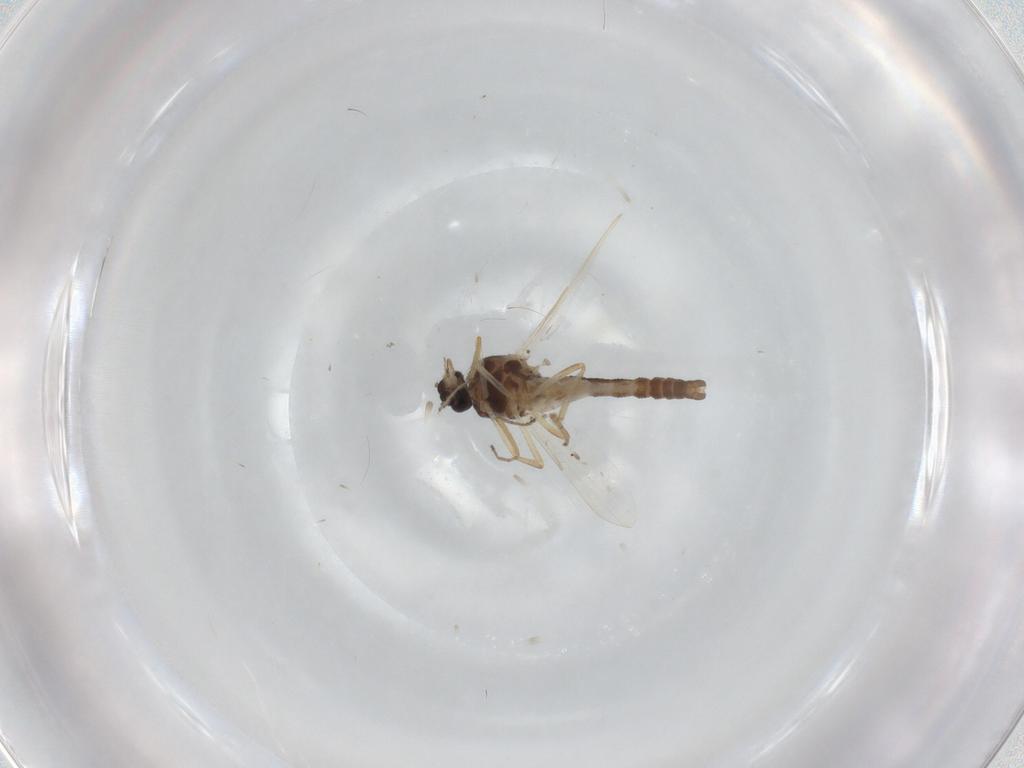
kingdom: Animalia
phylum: Arthropoda
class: Insecta
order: Diptera
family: Ceratopogonidae
